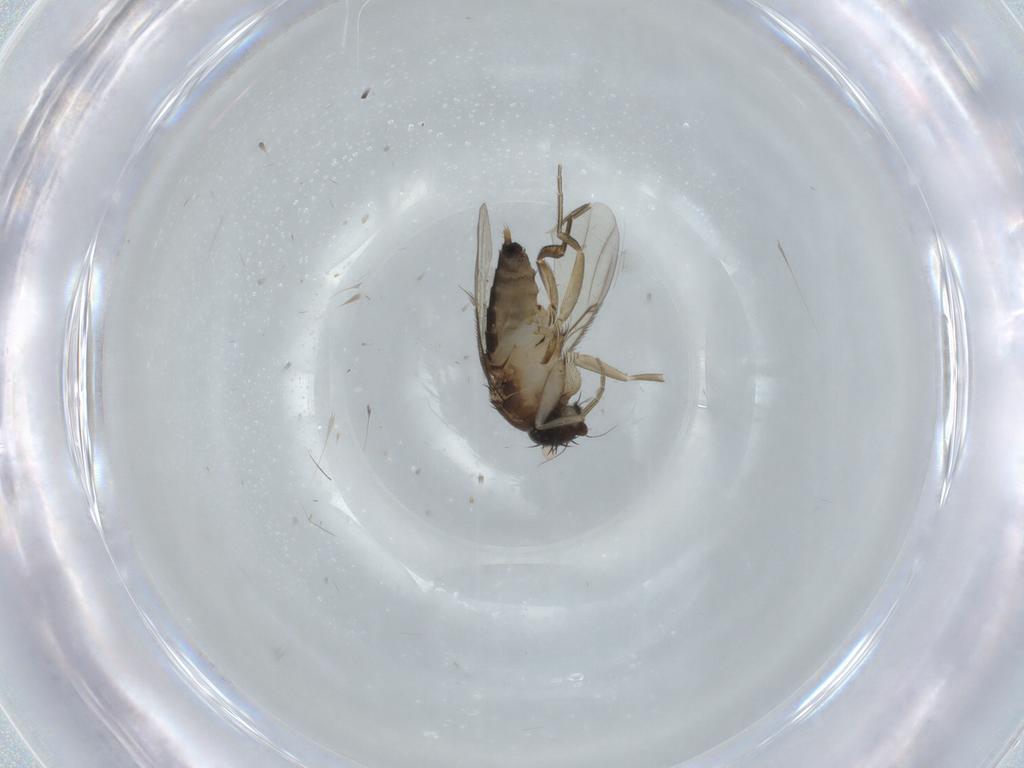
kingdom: Animalia
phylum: Arthropoda
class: Insecta
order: Diptera
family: Phoridae
